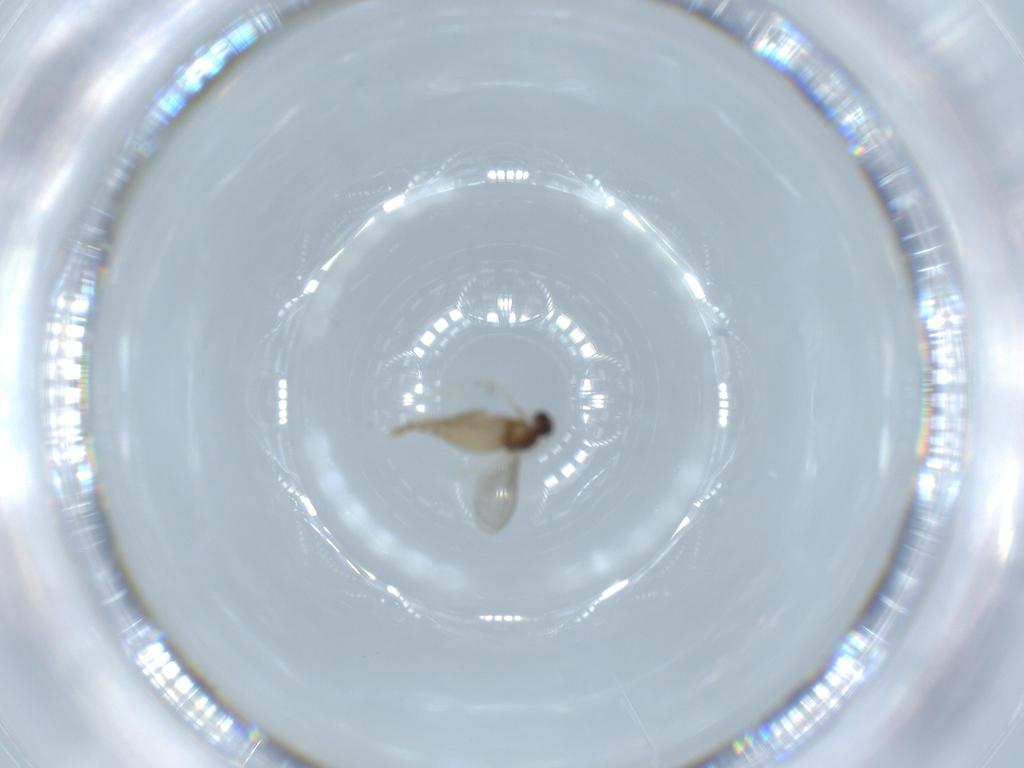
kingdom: Animalia
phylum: Arthropoda
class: Insecta
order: Diptera
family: Cecidomyiidae
